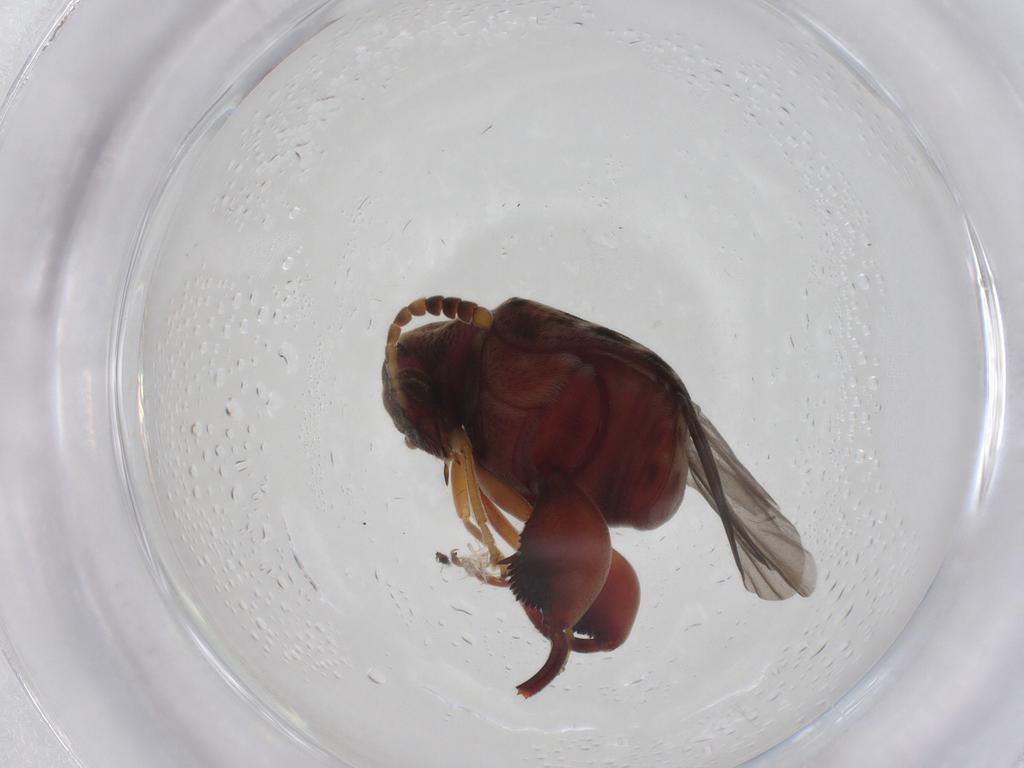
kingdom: Animalia
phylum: Arthropoda
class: Insecta
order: Coleoptera
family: Chrysomelidae
